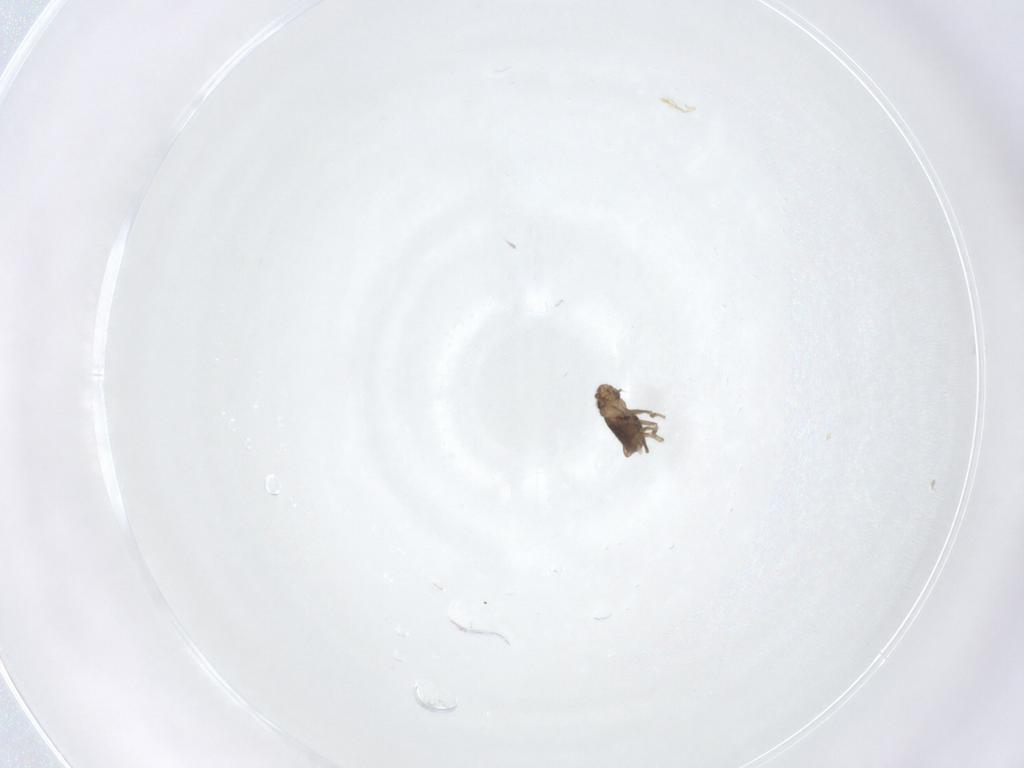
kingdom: Animalia
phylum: Arthropoda
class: Insecta
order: Diptera
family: Phoridae
